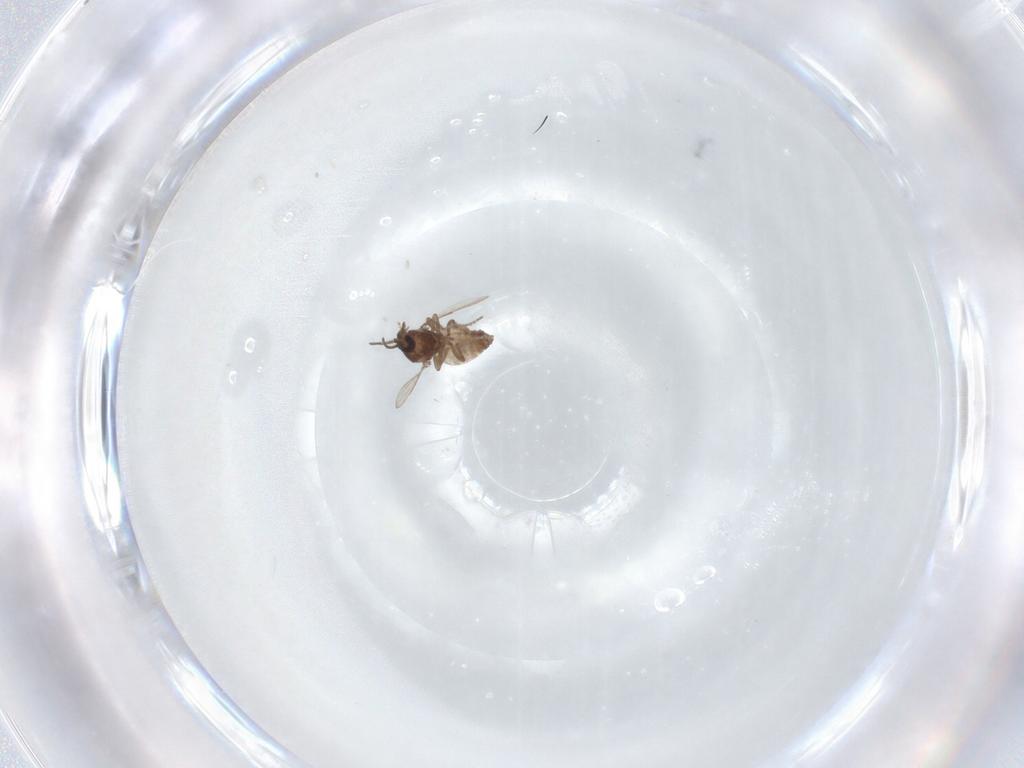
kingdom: Animalia
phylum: Arthropoda
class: Insecta
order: Diptera
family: Ceratopogonidae
